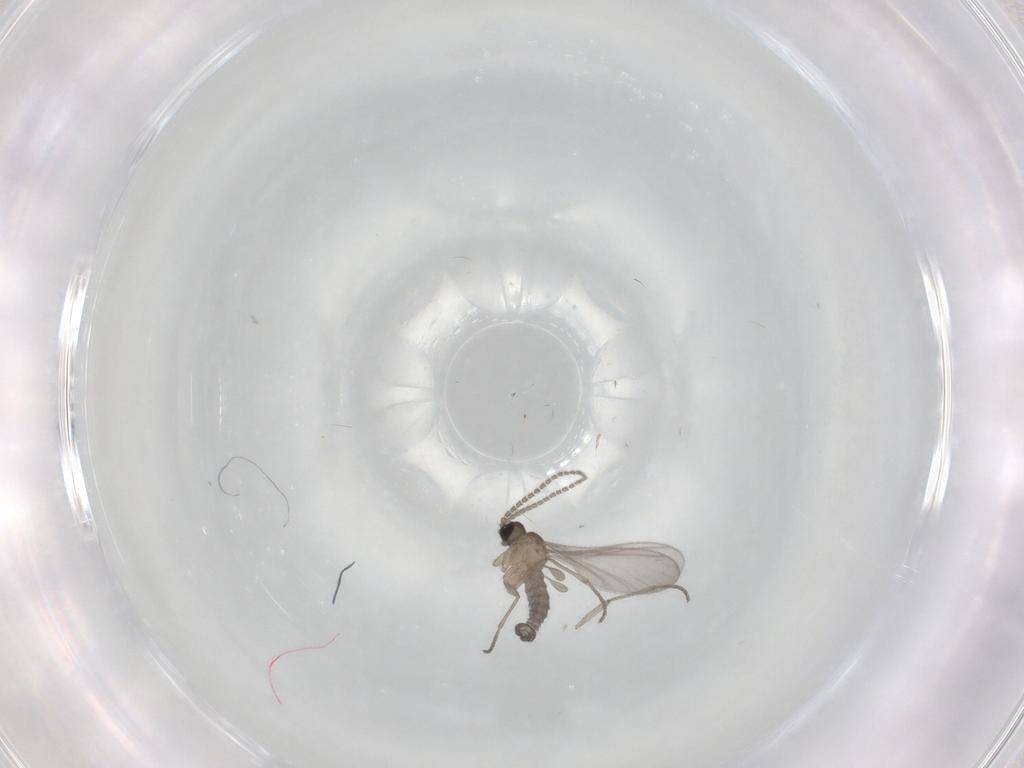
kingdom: Animalia
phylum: Arthropoda
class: Insecta
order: Diptera
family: Sciaridae
